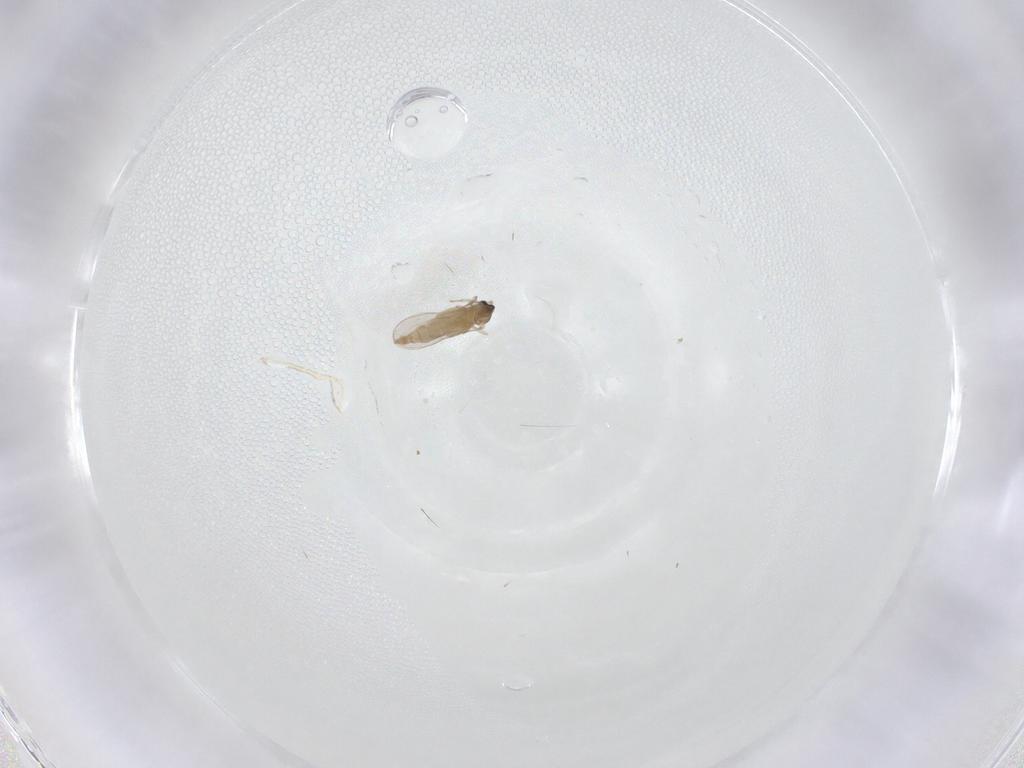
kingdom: Animalia
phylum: Arthropoda
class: Insecta
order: Diptera
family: Cecidomyiidae
